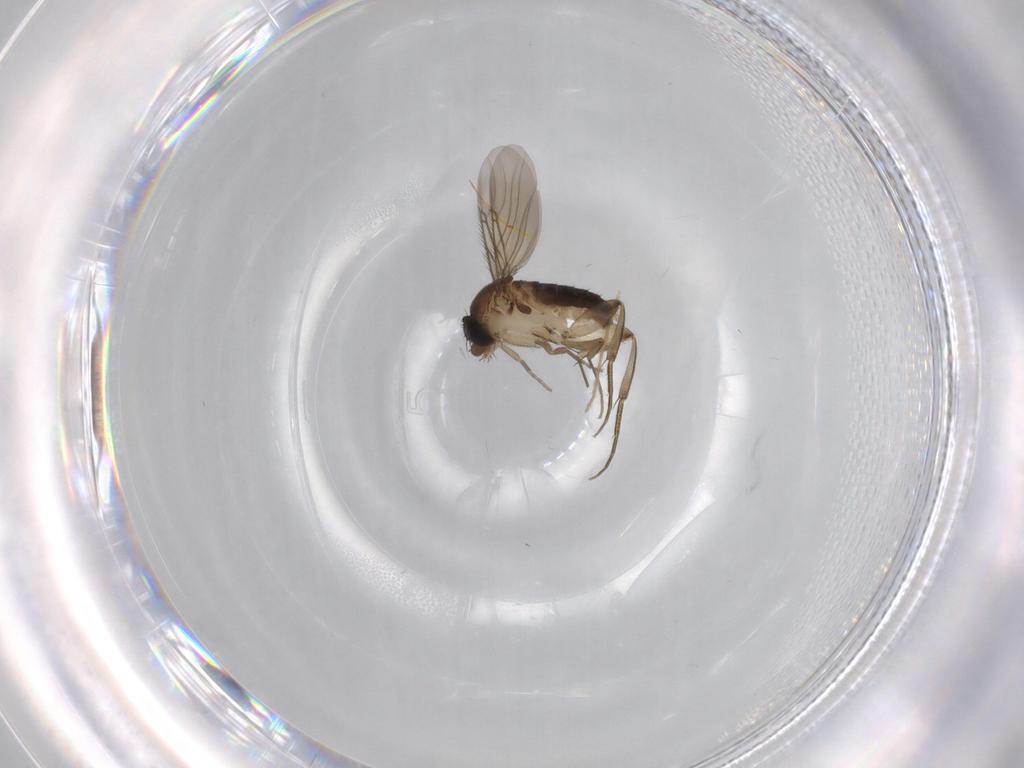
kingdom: Animalia
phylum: Arthropoda
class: Insecta
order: Diptera
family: Phoridae
